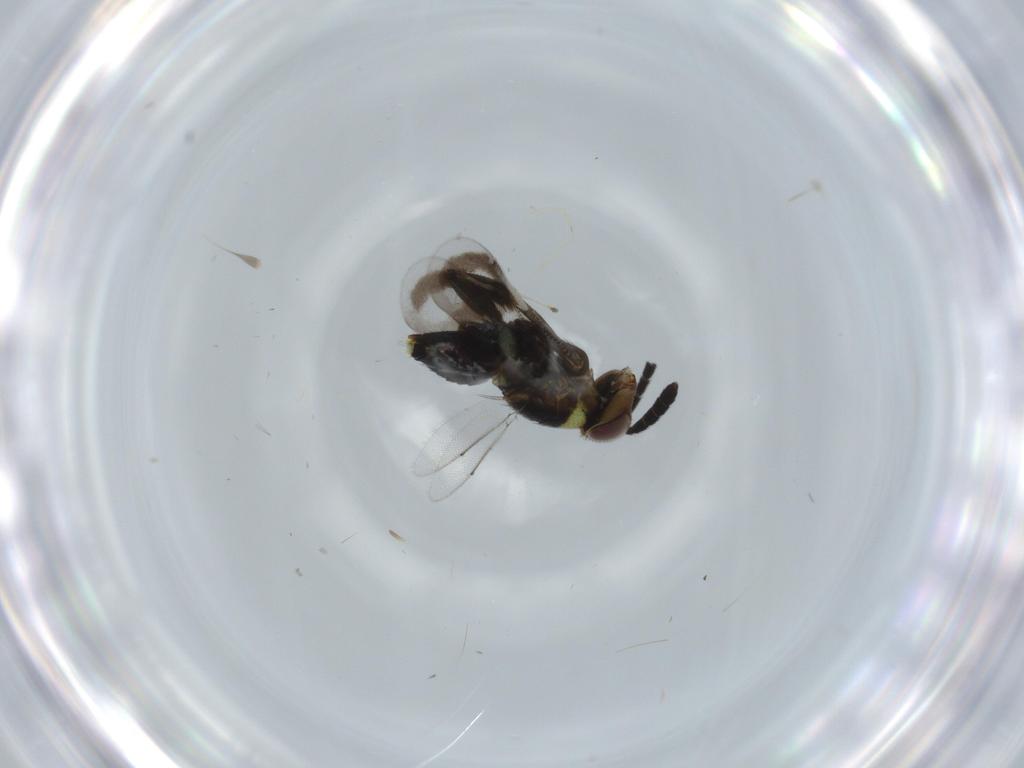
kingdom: Animalia
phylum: Arthropoda
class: Insecta
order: Hymenoptera
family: Aphelinidae
